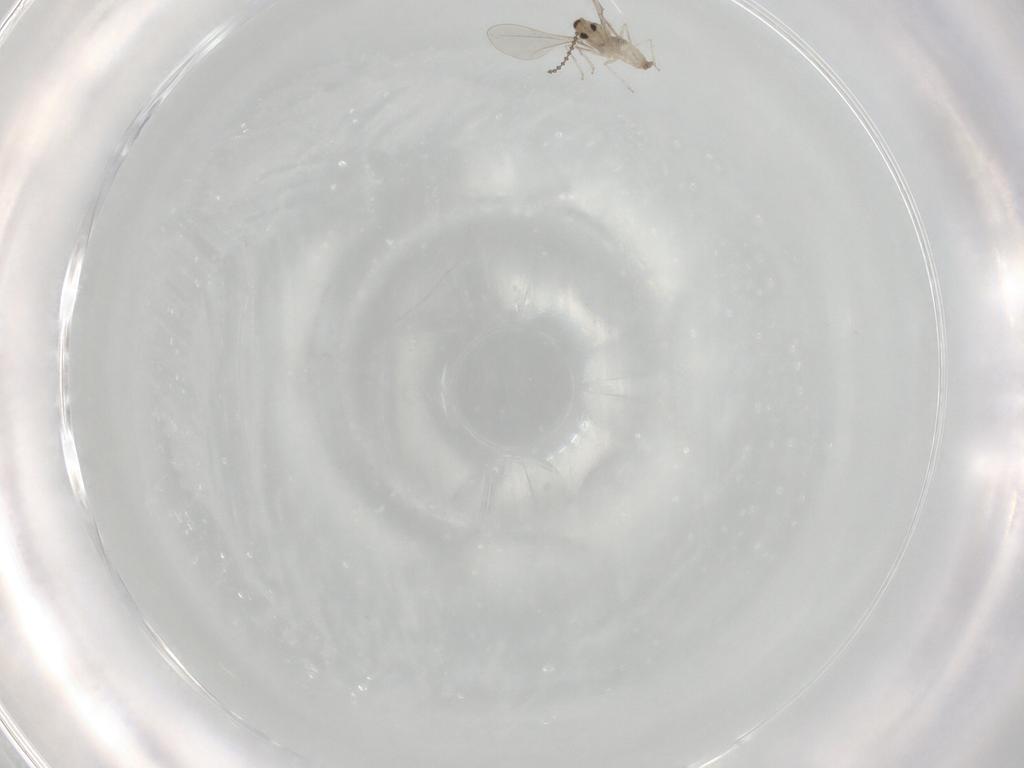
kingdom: Animalia
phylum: Arthropoda
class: Insecta
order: Diptera
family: Cecidomyiidae
